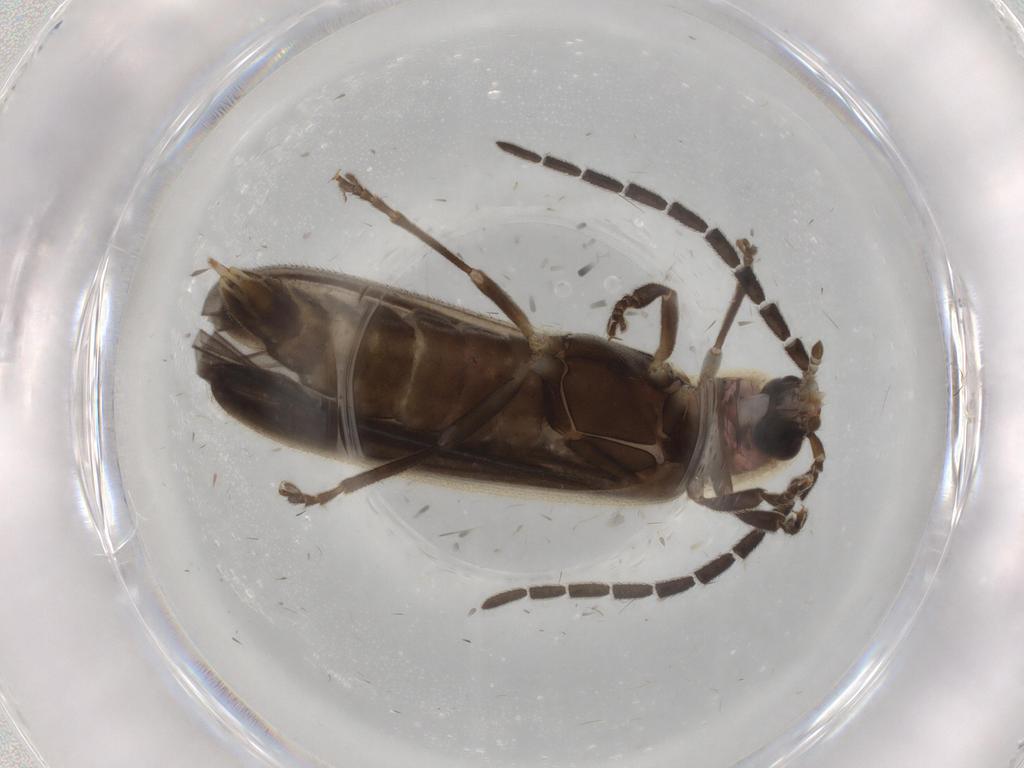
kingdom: Animalia
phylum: Arthropoda
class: Insecta
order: Coleoptera
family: Lampyridae
